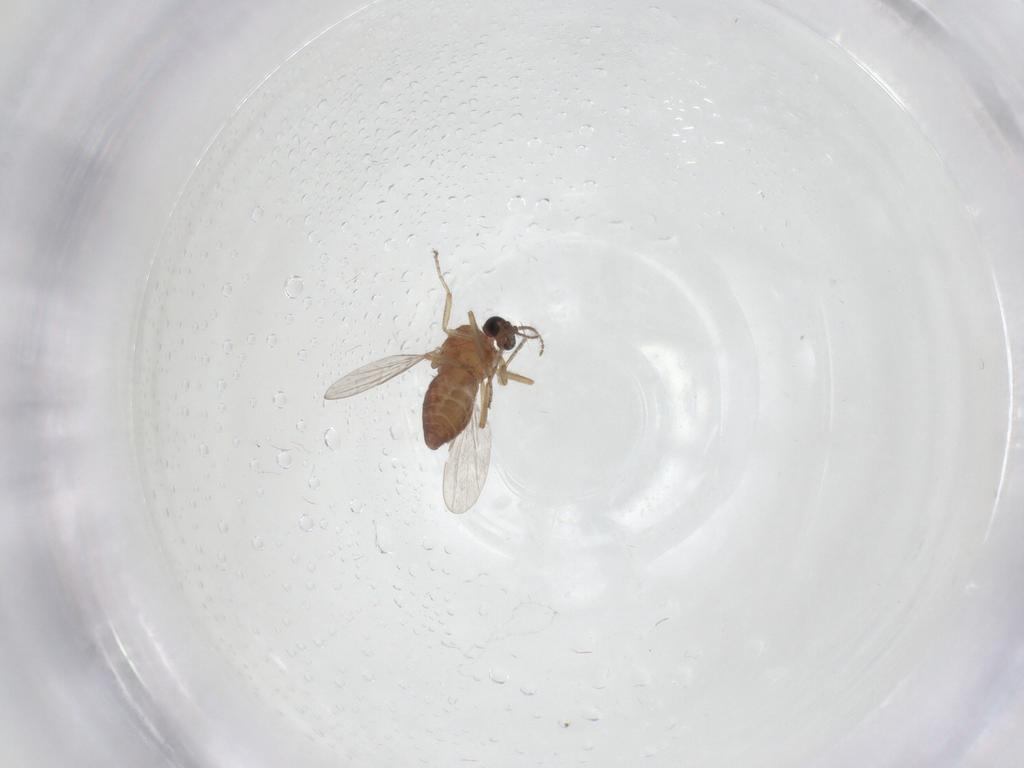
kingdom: Animalia
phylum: Arthropoda
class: Insecta
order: Diptera
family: Ceratopogonidae
